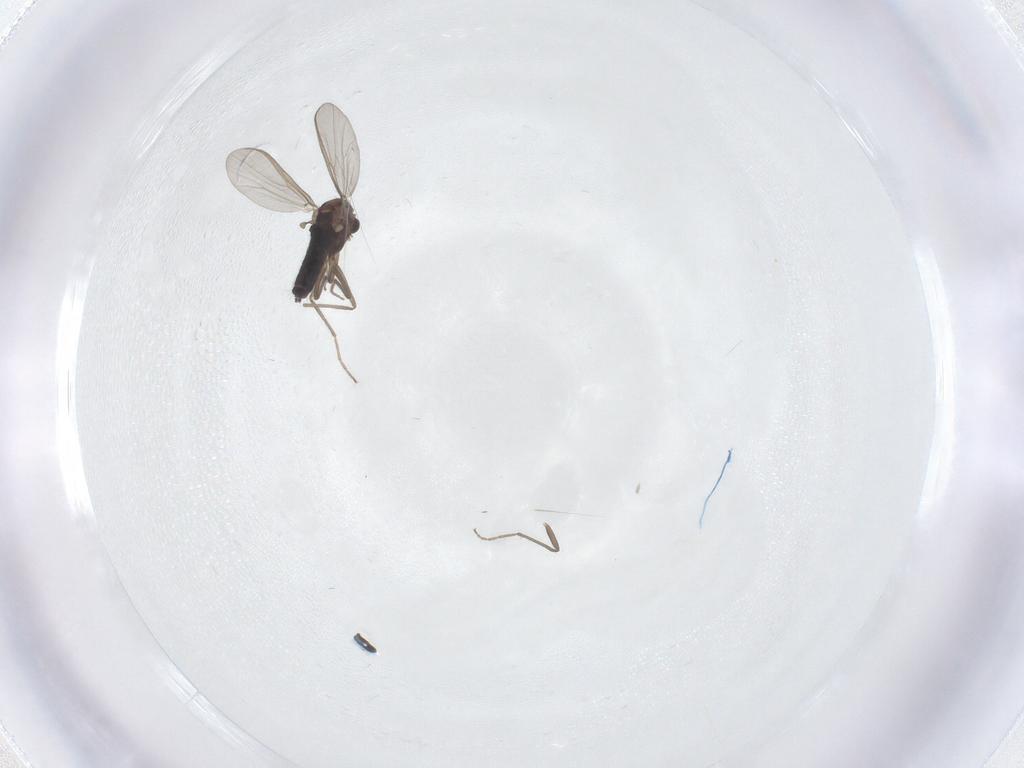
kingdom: Animalia
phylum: Arthropoda
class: Insecta
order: Diptera
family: Chironomidae
